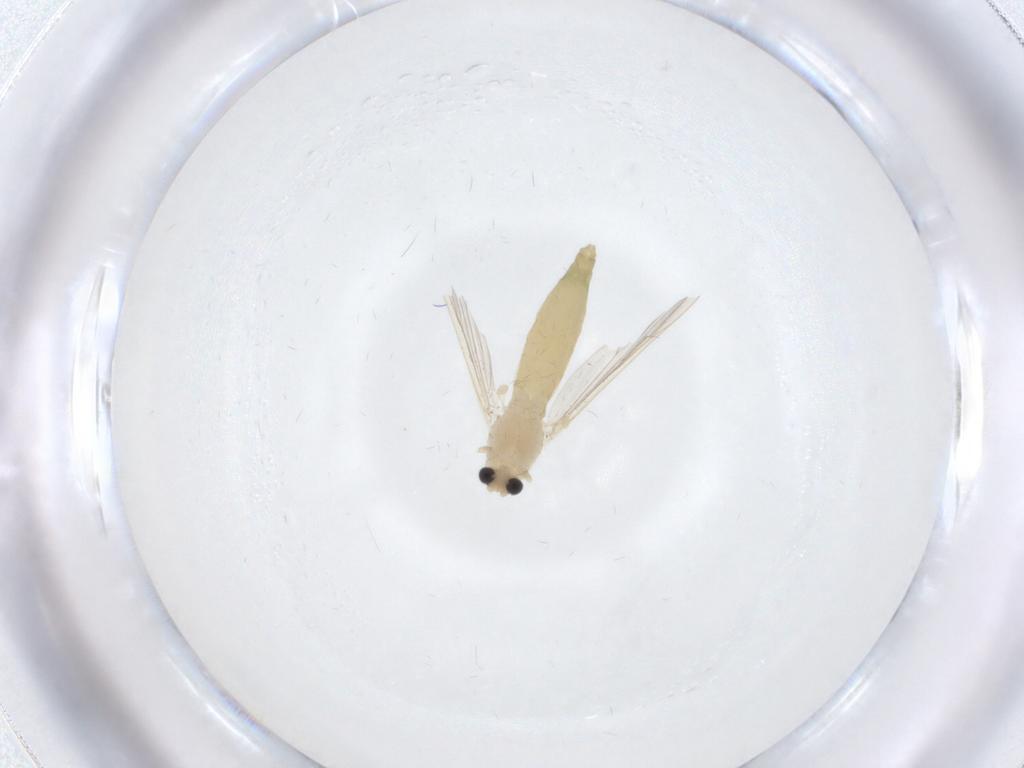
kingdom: Animalia
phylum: Arthropoda
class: Insecta
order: Diptera
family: Chironomidae
